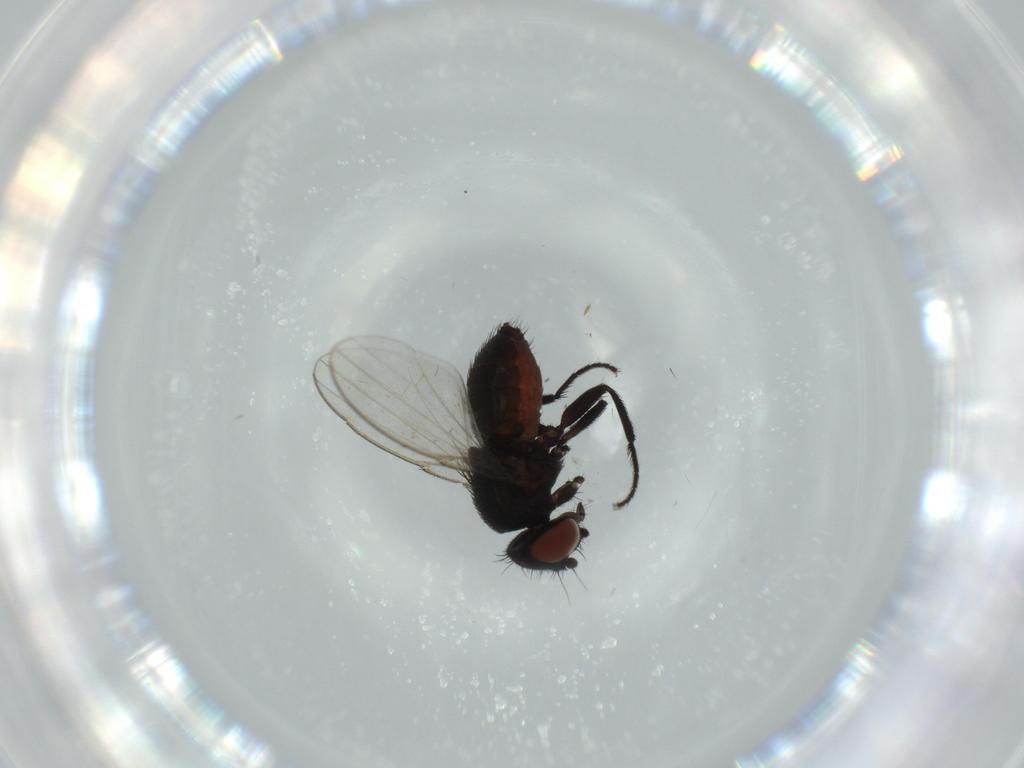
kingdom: Animalia
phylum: Arthropoda
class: Insecta
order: Diptera
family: Milichiidae
